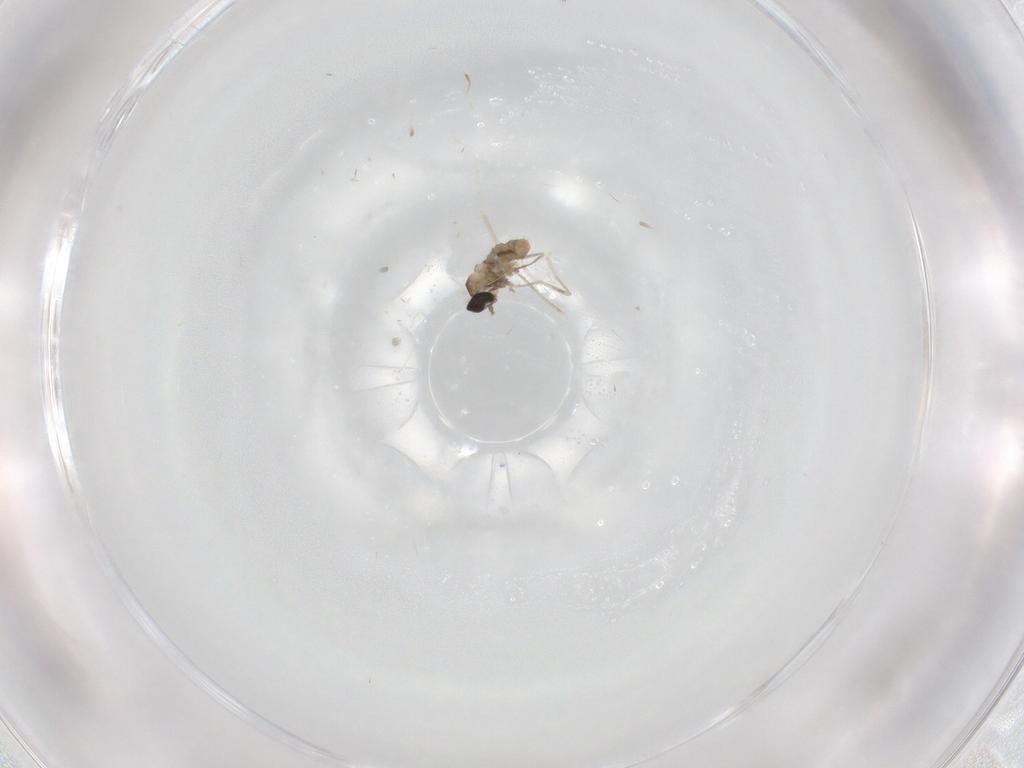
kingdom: Animalia
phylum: Arthropoda
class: Insecta
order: Diptera
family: Cecidomyiidae
